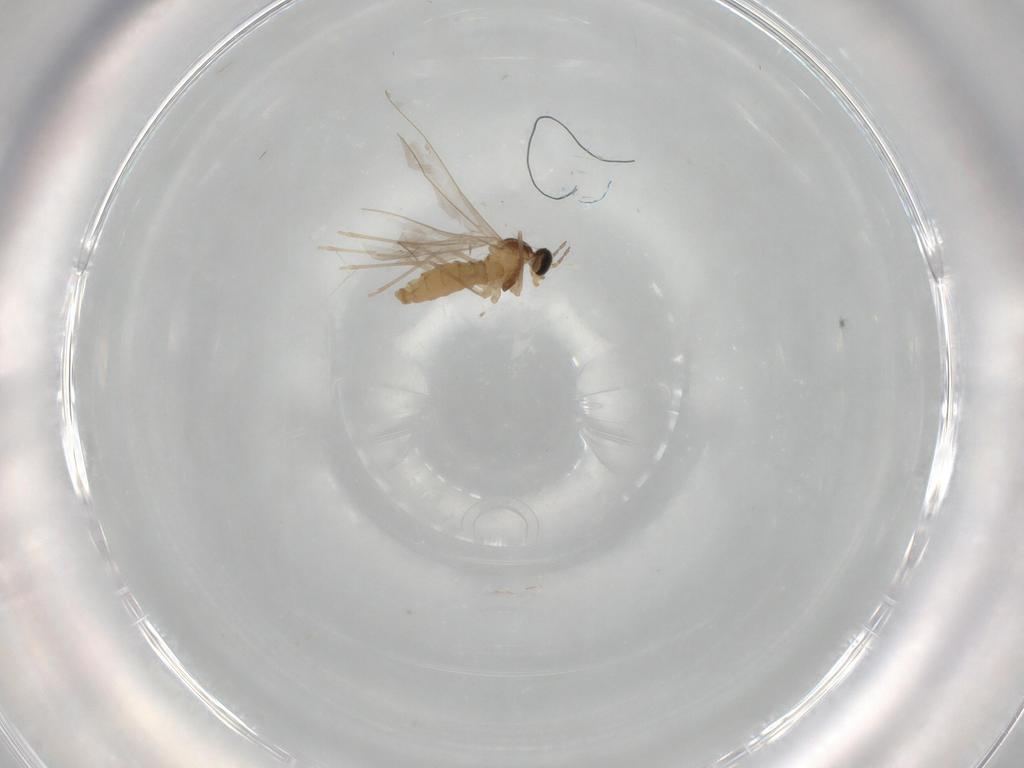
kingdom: Animalia
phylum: Arthropoda
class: Insecta
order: Diptera
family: Cecidomyiidae
